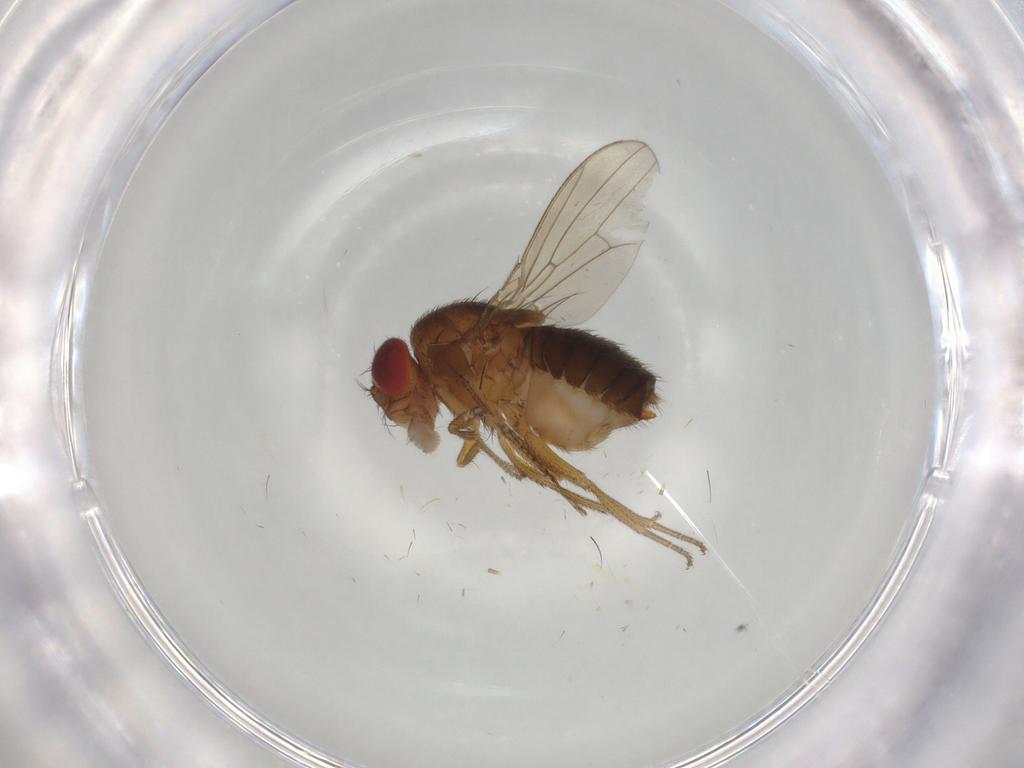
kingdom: Animalia
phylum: Arthropoda
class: Insecta
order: Diptera
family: Drosophilidae
